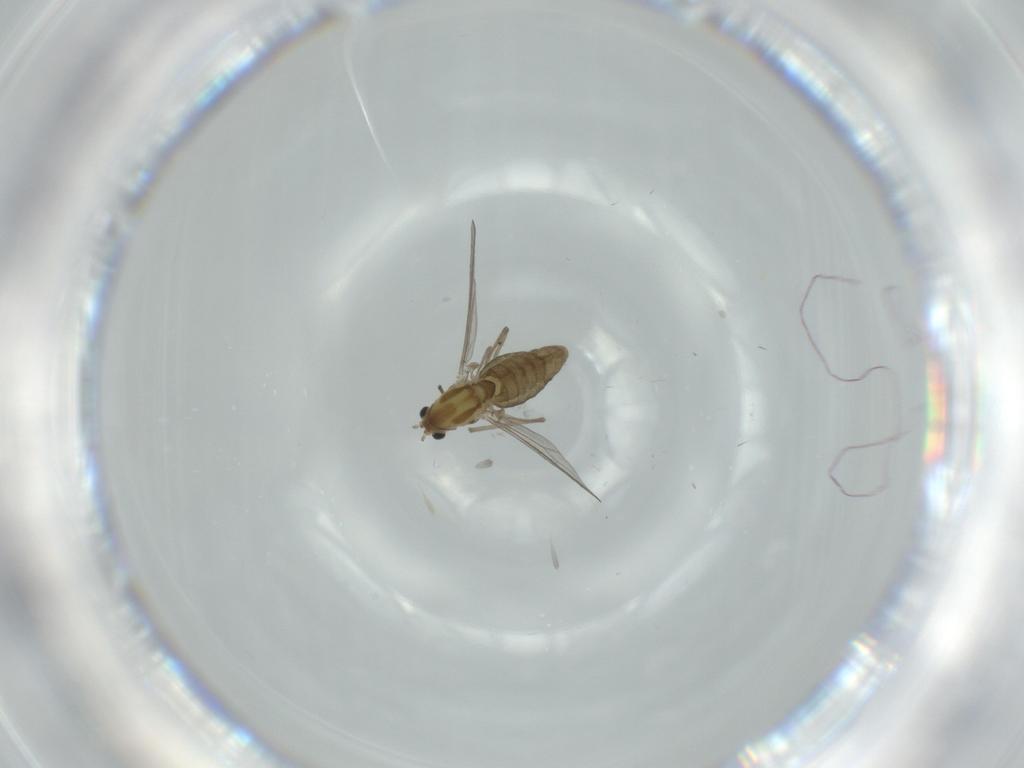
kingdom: Animalia
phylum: Arthropoda
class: Insecta
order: Diptera
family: Chironomidae
